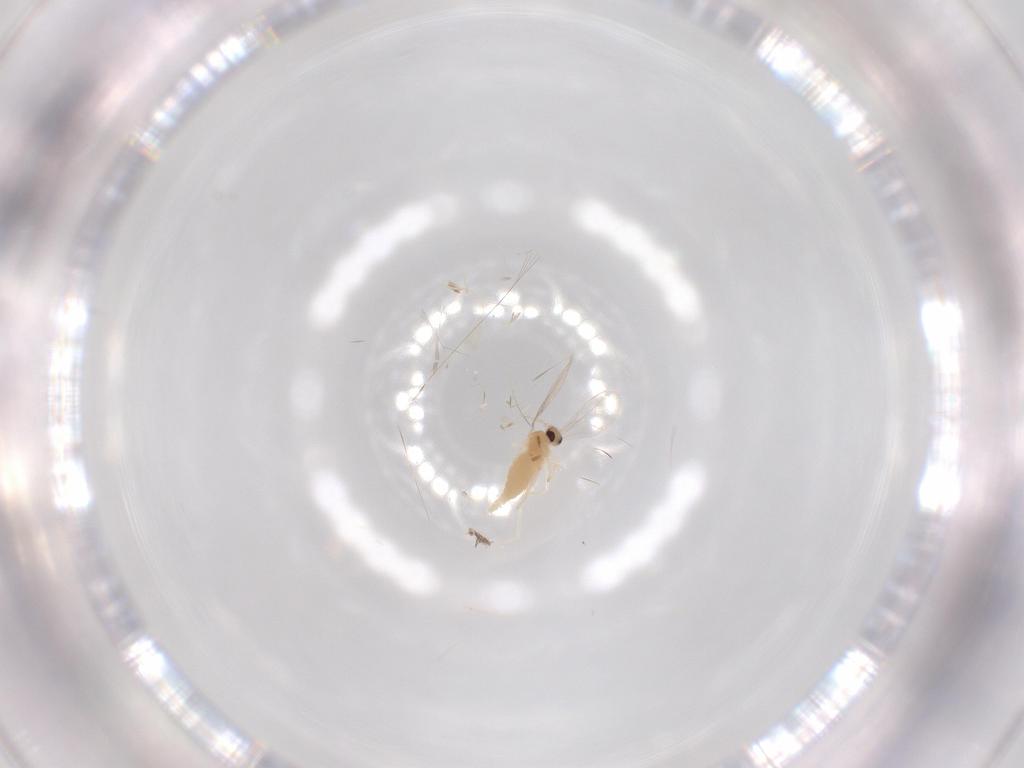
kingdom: Animalia
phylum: Arthropoda
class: Insecta
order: Diptera
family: Cecidomyiidae
